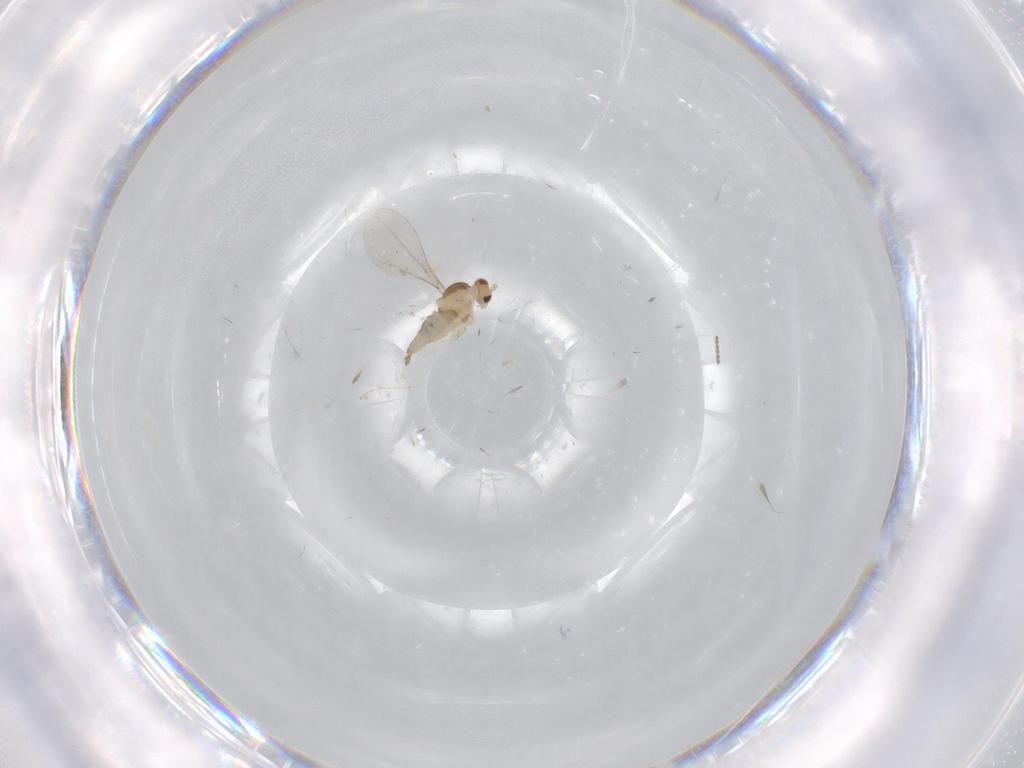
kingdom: Animalia
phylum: Arthropoda
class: Insecta
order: Diptera
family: Cecidomyiidae
